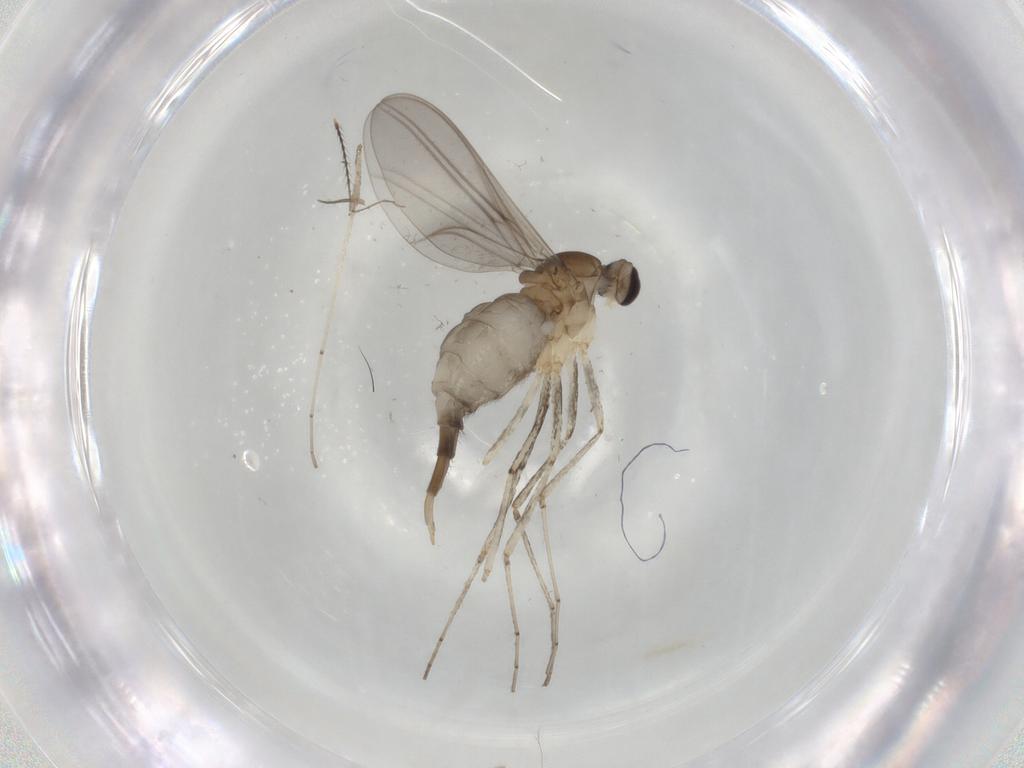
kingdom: Animalia
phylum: Arthropoda
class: Insecta
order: Diptera
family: Cecidomyiidae
